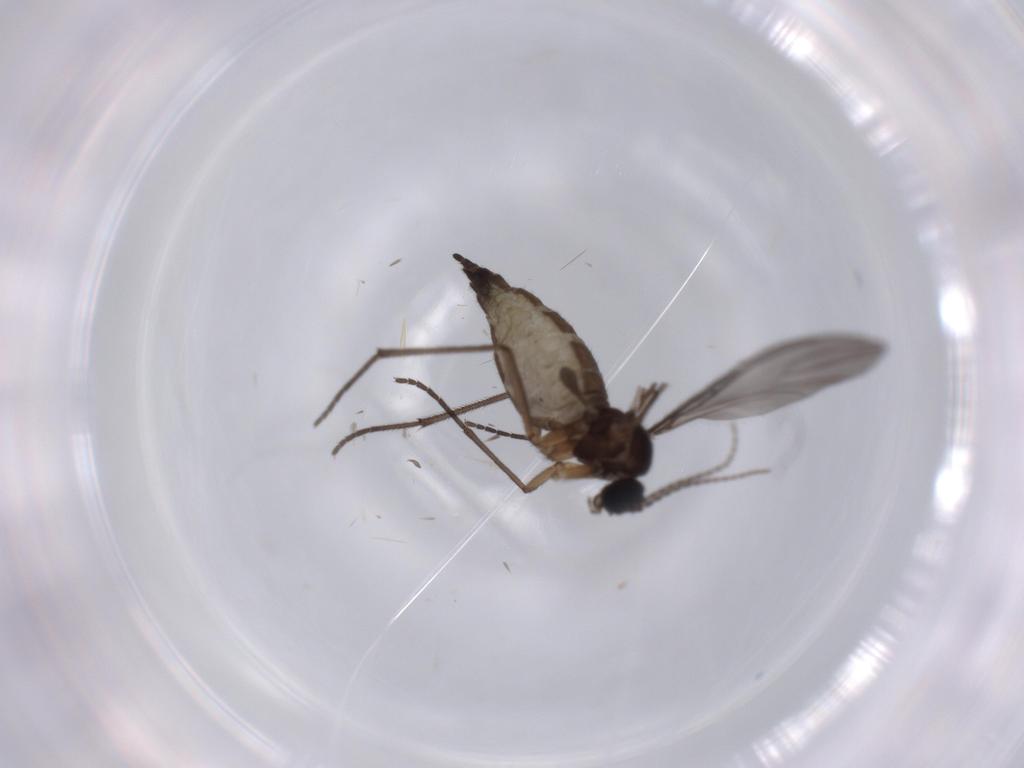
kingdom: Animalia
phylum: Arthropoda
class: Insecta
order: Diptera
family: Sciaridae
